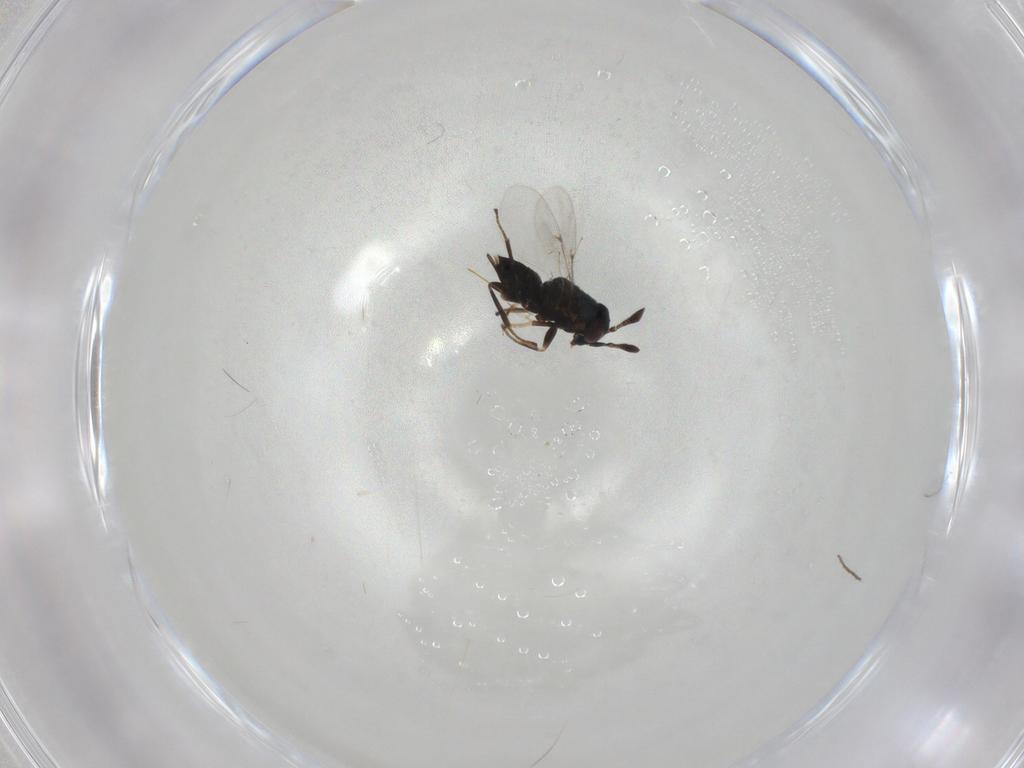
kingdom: Animalia
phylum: Arthropoda
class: Insecta
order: Hymenoptera
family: Encyrtidae
